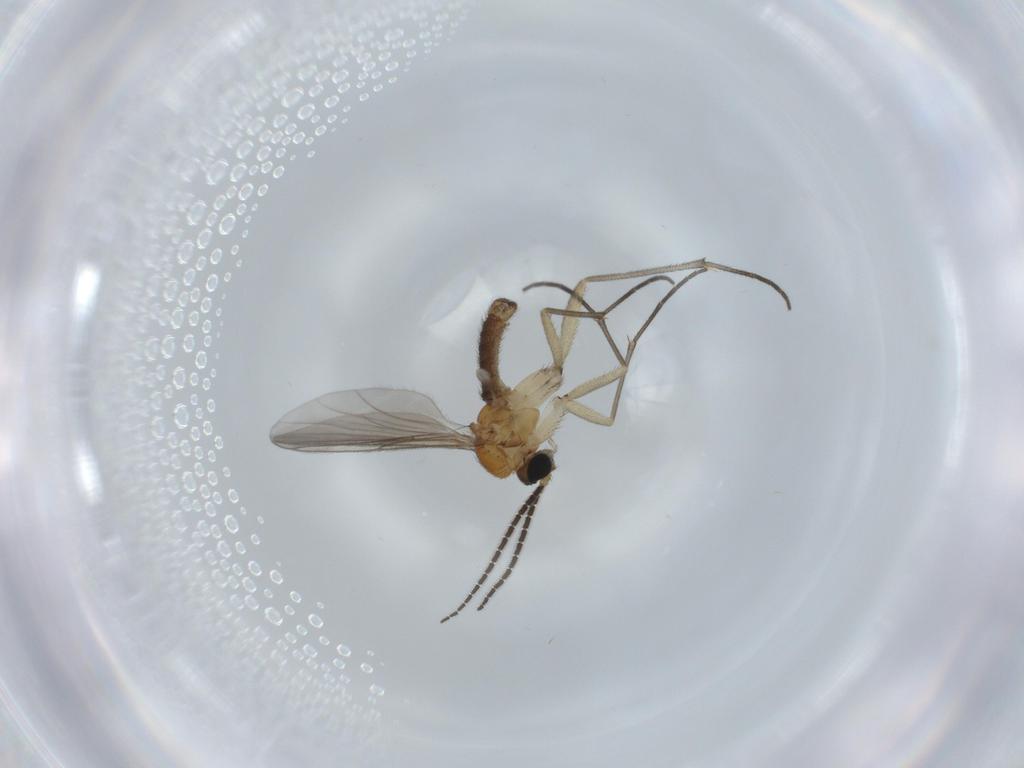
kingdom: Animalia
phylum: Arthropoda
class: Insecta
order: Diptera
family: Sciaridae
